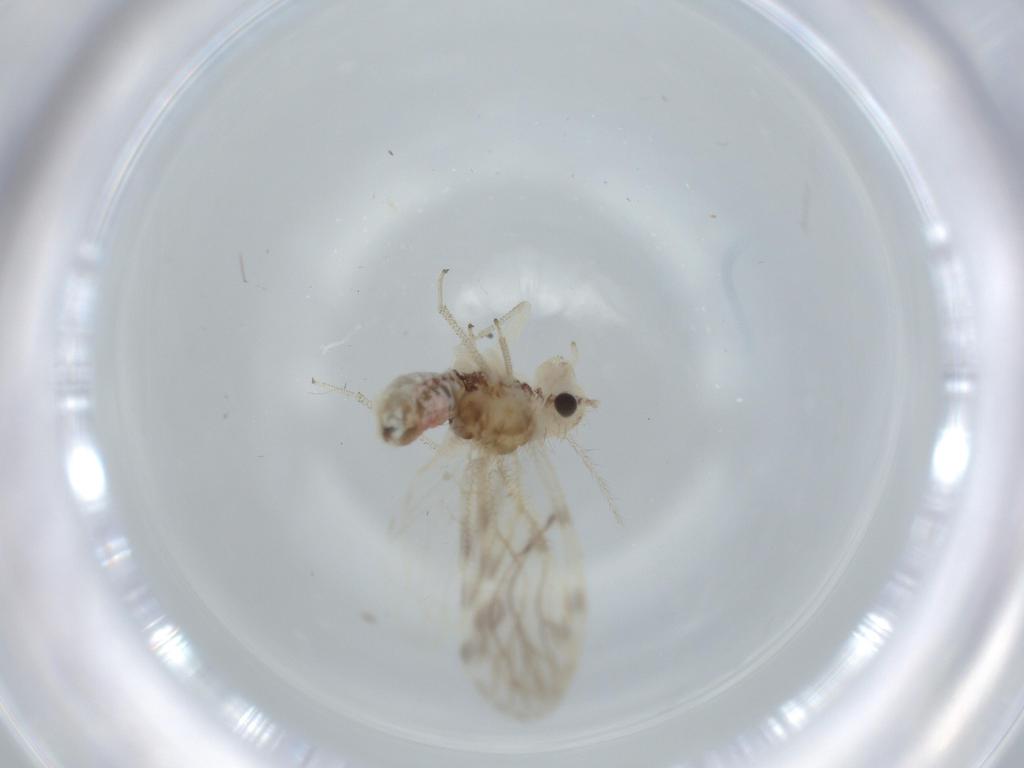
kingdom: Animalia
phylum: Arthropoda
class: Insecta
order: Psocodea
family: Pseudocaeciliidae
